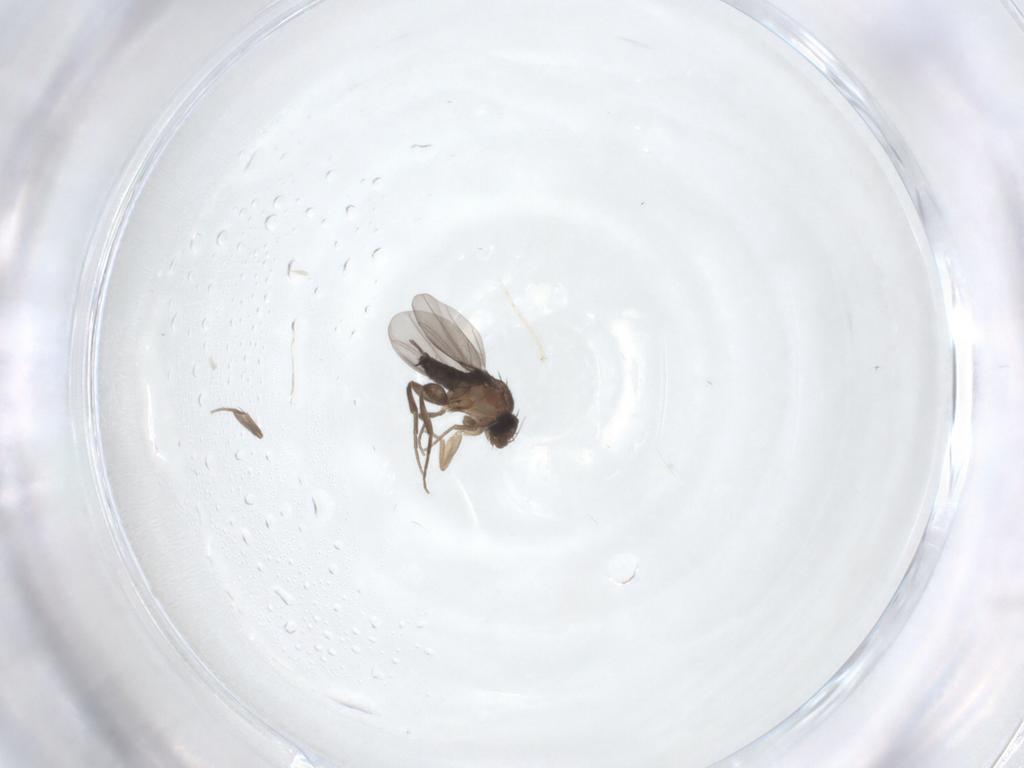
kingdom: Animalia
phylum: Arthropoda
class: Insecta
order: Diptera
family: Phoridae
